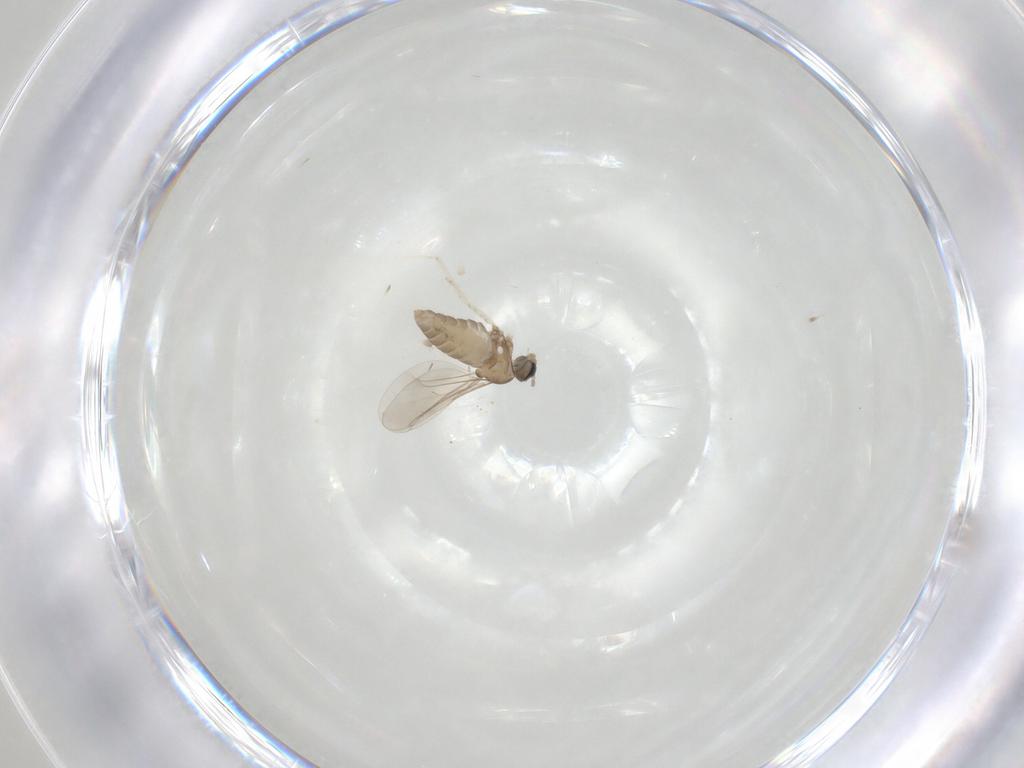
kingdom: Animalia
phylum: Arthropoda
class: Insecta
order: Diptera
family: Cecidomyiidae
